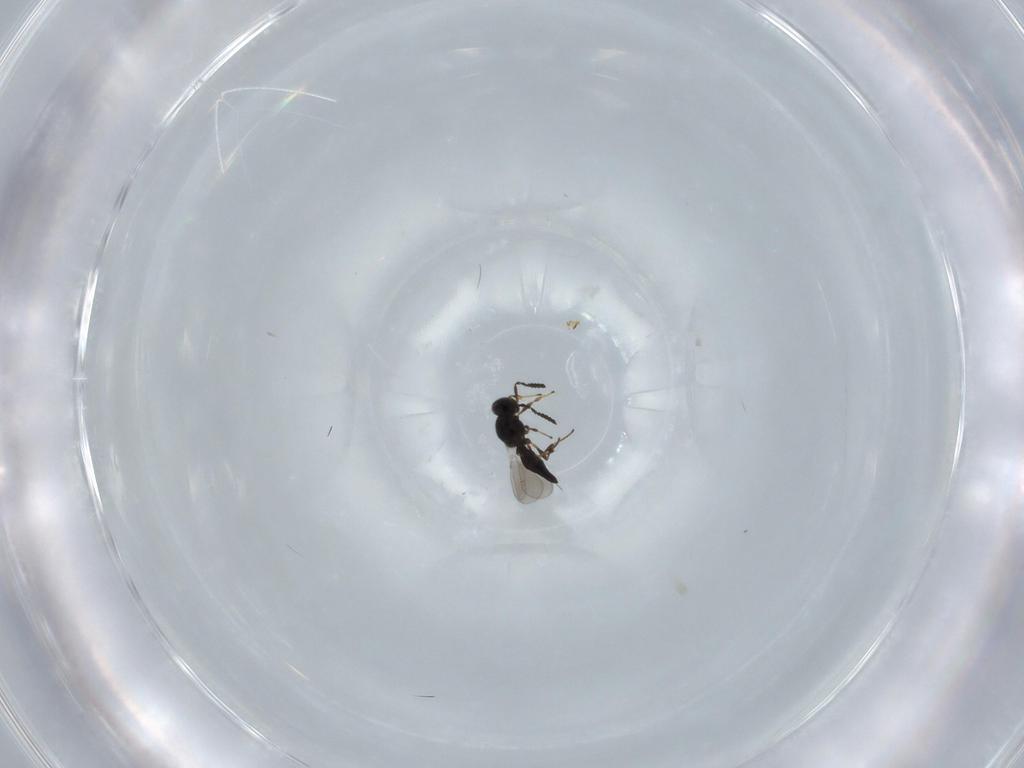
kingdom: Animalia
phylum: Arthropoda
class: Insecta
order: Hymenoptera
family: Platygastridae
